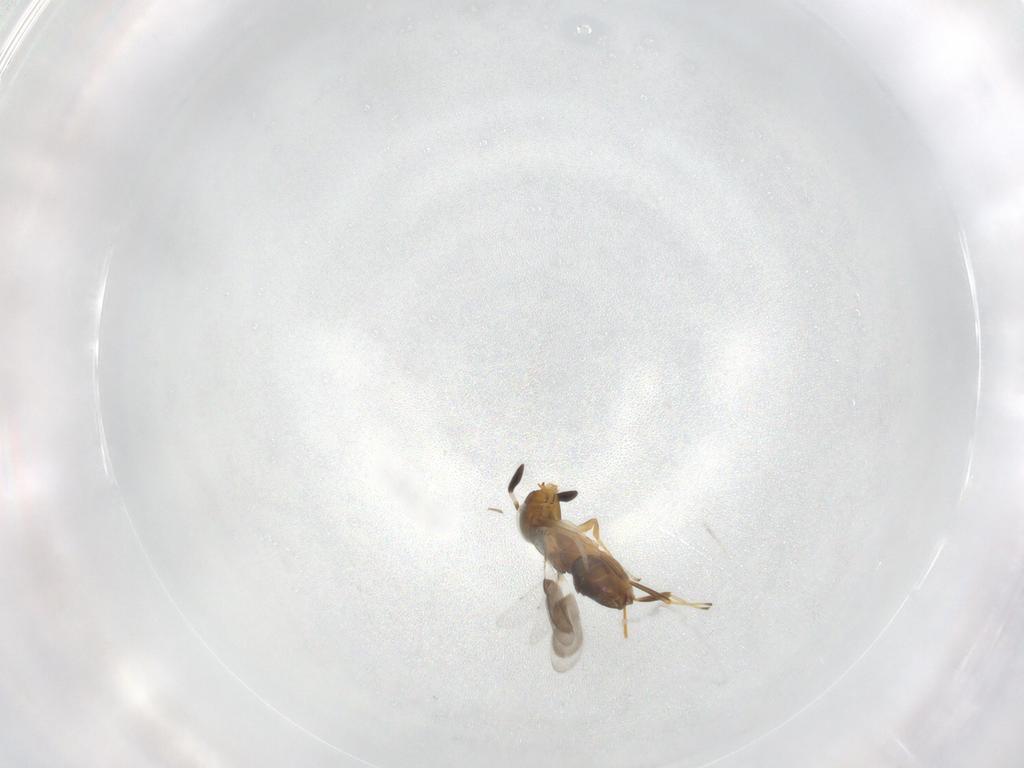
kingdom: Animalia
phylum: Arthropoda
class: Insecta
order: Hymenoptera
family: Encyrtidae
